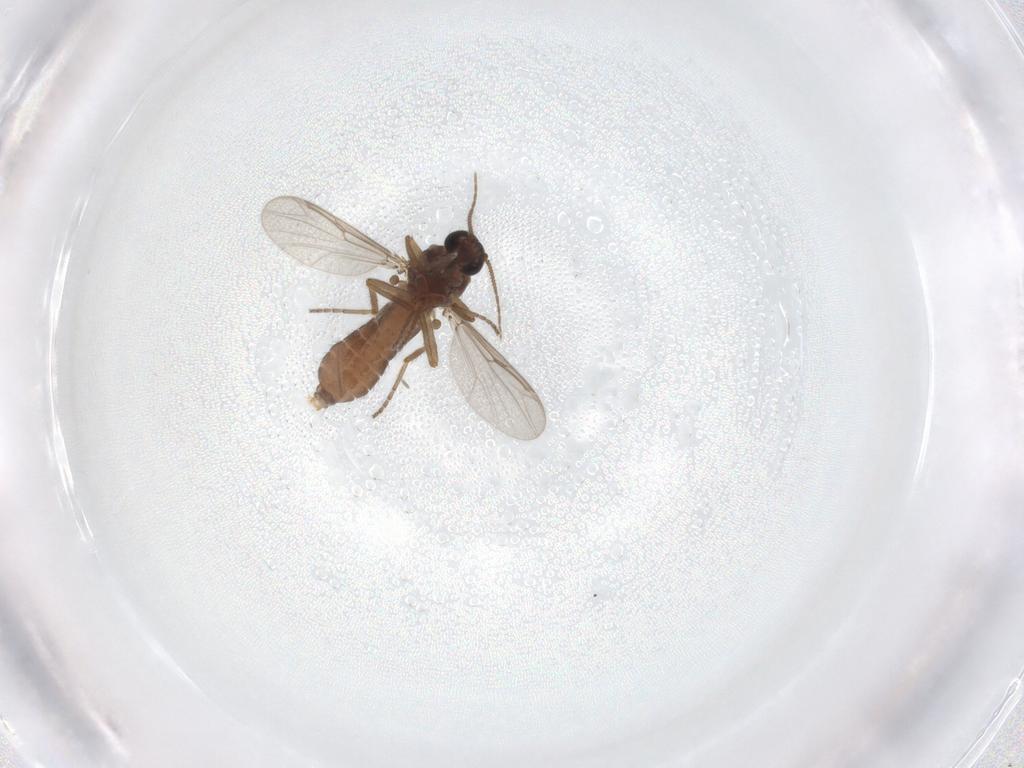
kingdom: Animalia
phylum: Arthropoda
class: Insecta
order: Diptera
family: Ceratopogonidae
